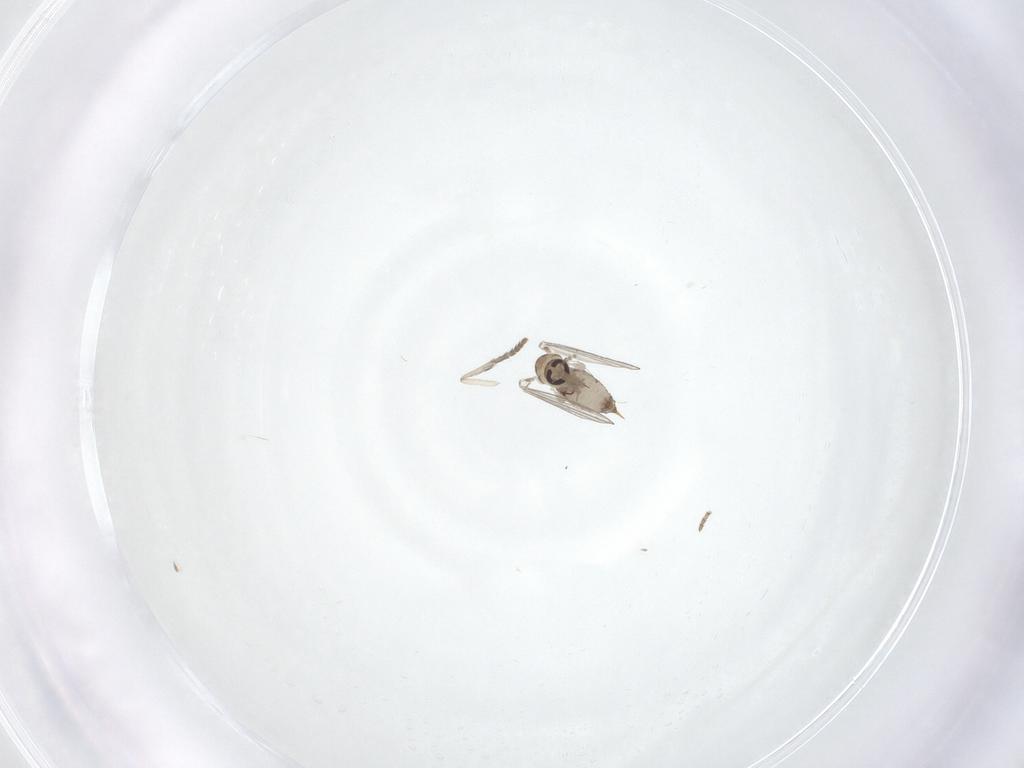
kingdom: Animalia
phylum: Arthropoda
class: Insecta
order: Diptera
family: Psychodidae
